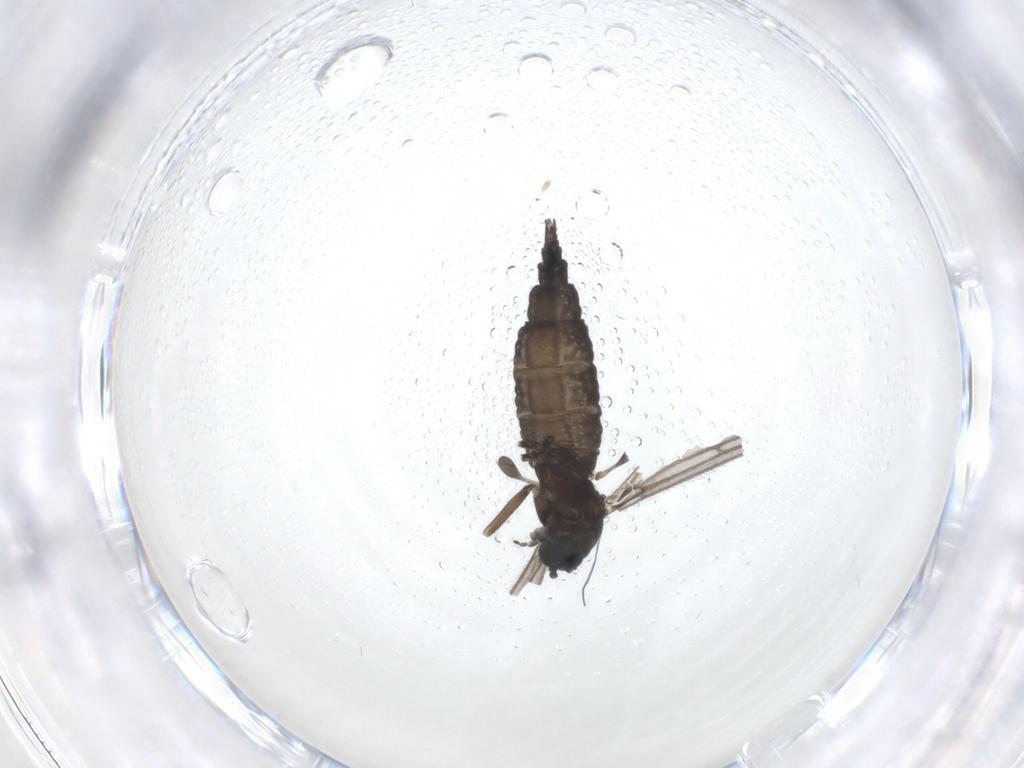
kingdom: Animalia
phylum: Arthropoda
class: Insecta
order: Diptera
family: Sciaridae
